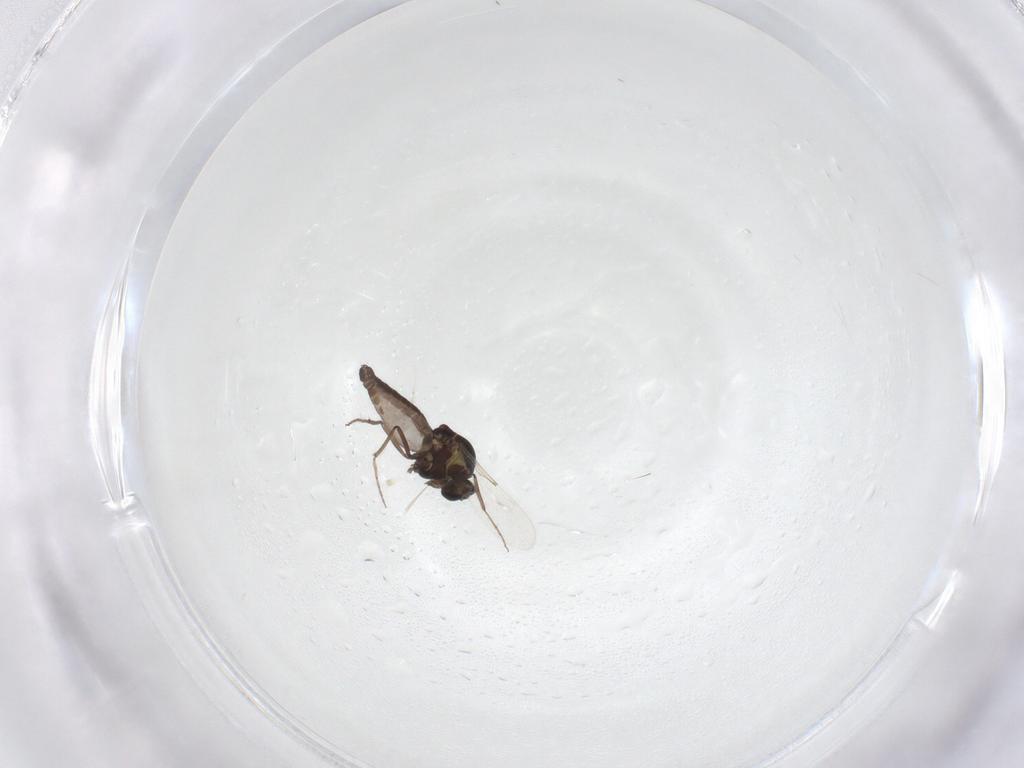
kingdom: Animalia
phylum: Arthropoda
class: Insecta
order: Diptera
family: Ceratopogonidae
